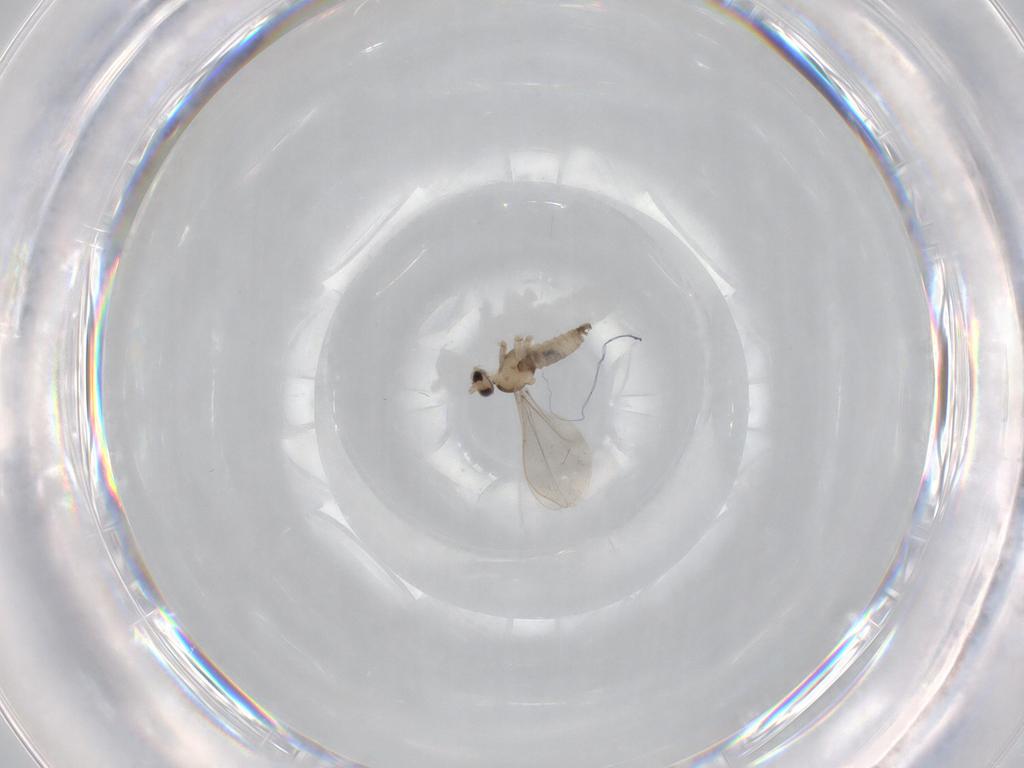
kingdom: Animalia
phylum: Arthropoda
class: Insecta
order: Diptera
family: Cecidomyiidae
